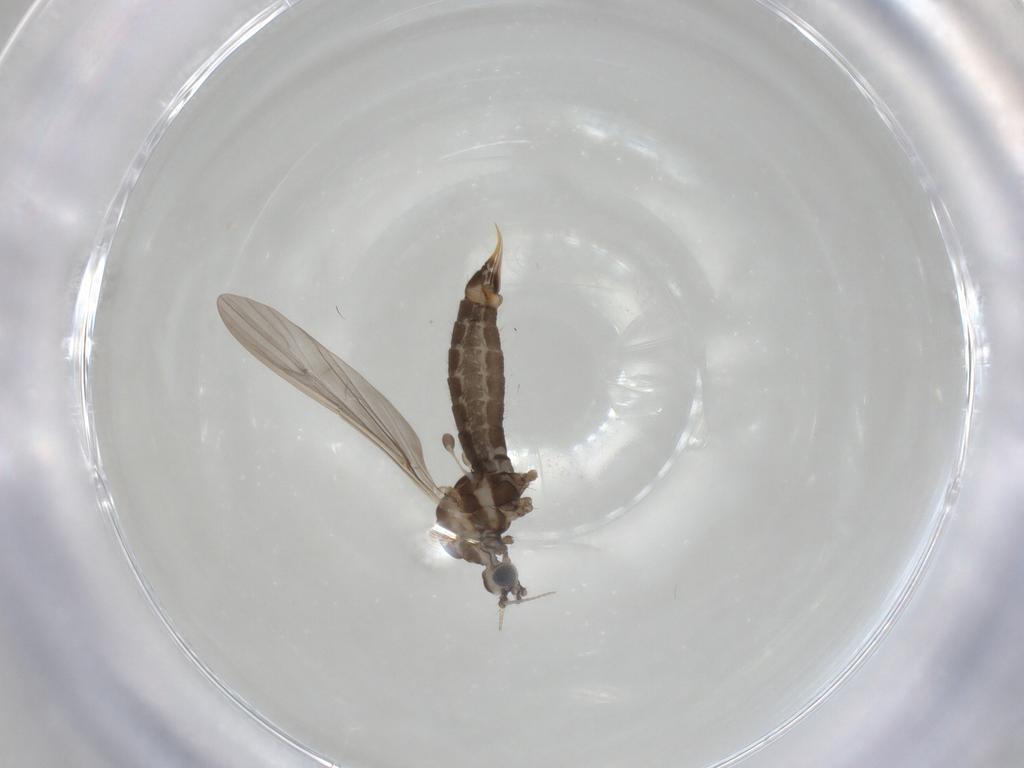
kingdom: Animalia
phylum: Arthropoda
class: Insecta
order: Diptera
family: Limoniidae
